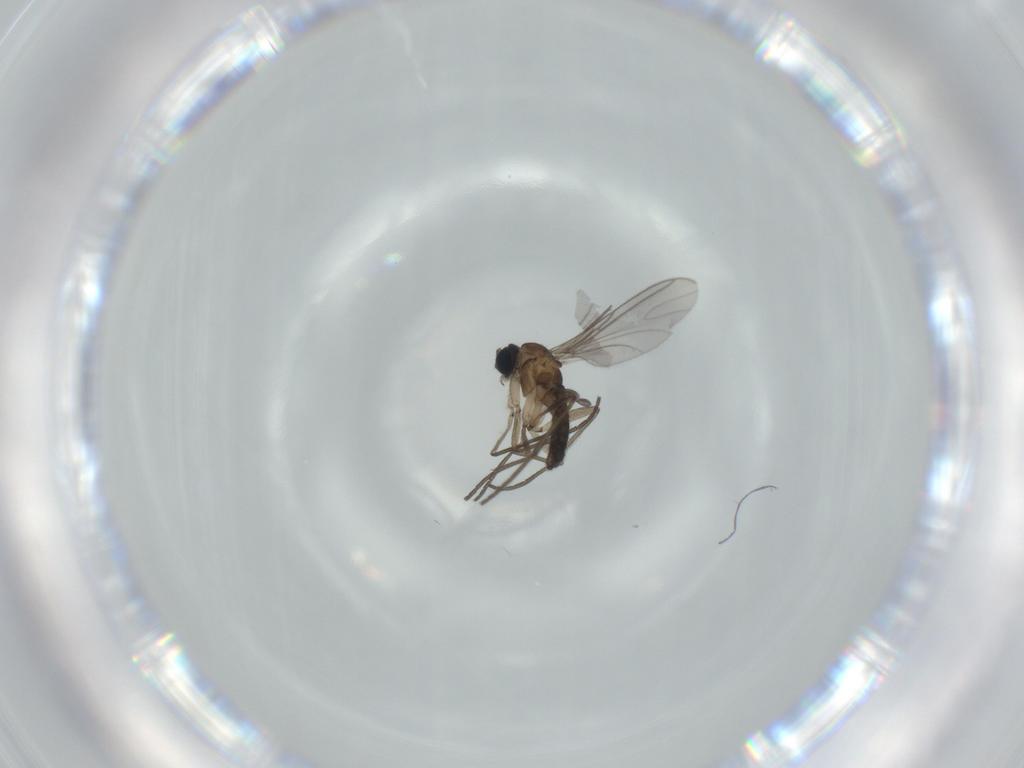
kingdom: Animalia
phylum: Arthropoda
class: Insecta
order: Diptera
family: Sciaridae
